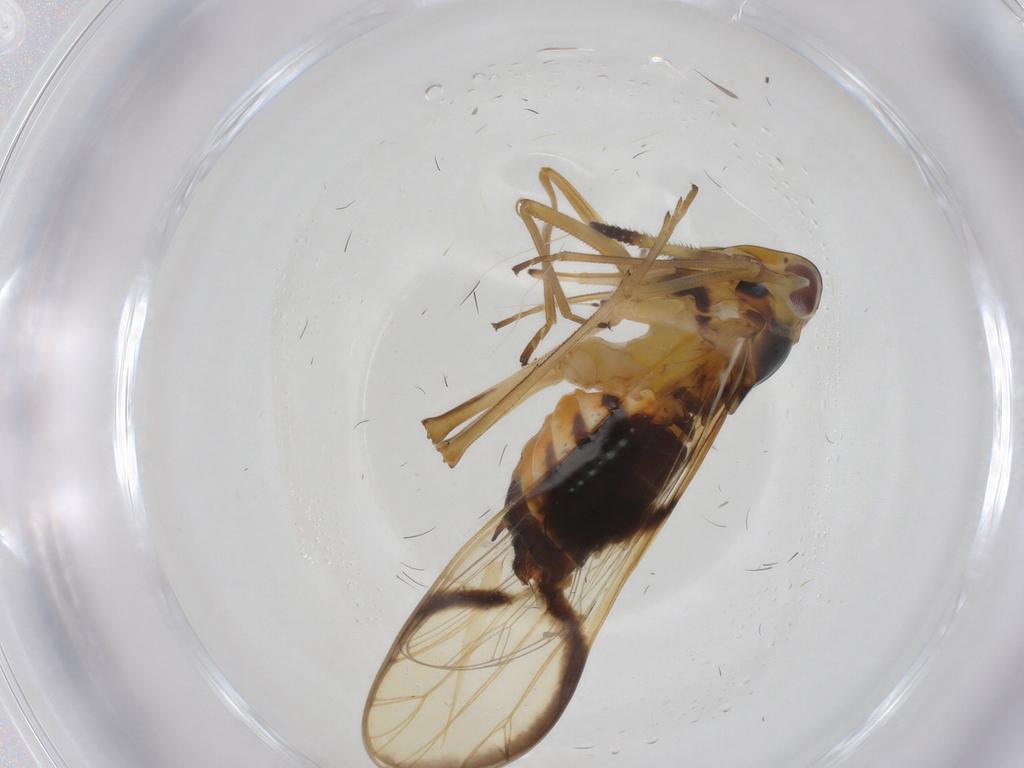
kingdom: Animalia
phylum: Arthropoda
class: Insecta
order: Hemiptera
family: Delphacidae
